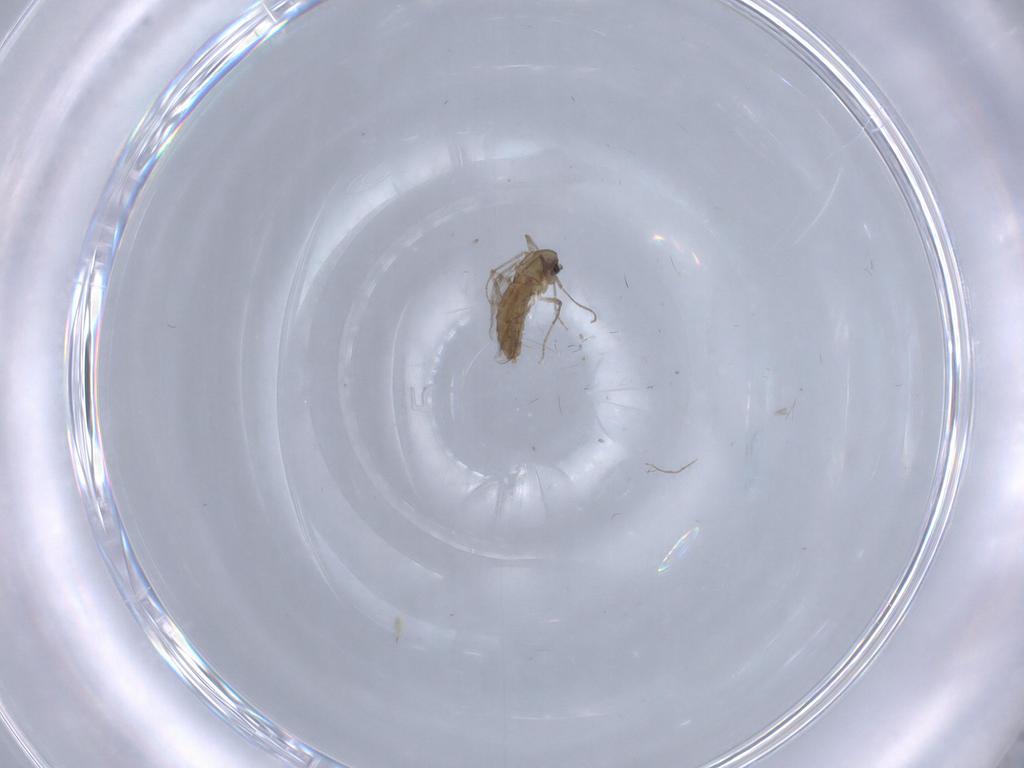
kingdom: Animalia
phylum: Arthropoda
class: Insecta
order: Diptera
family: Chironomidae
